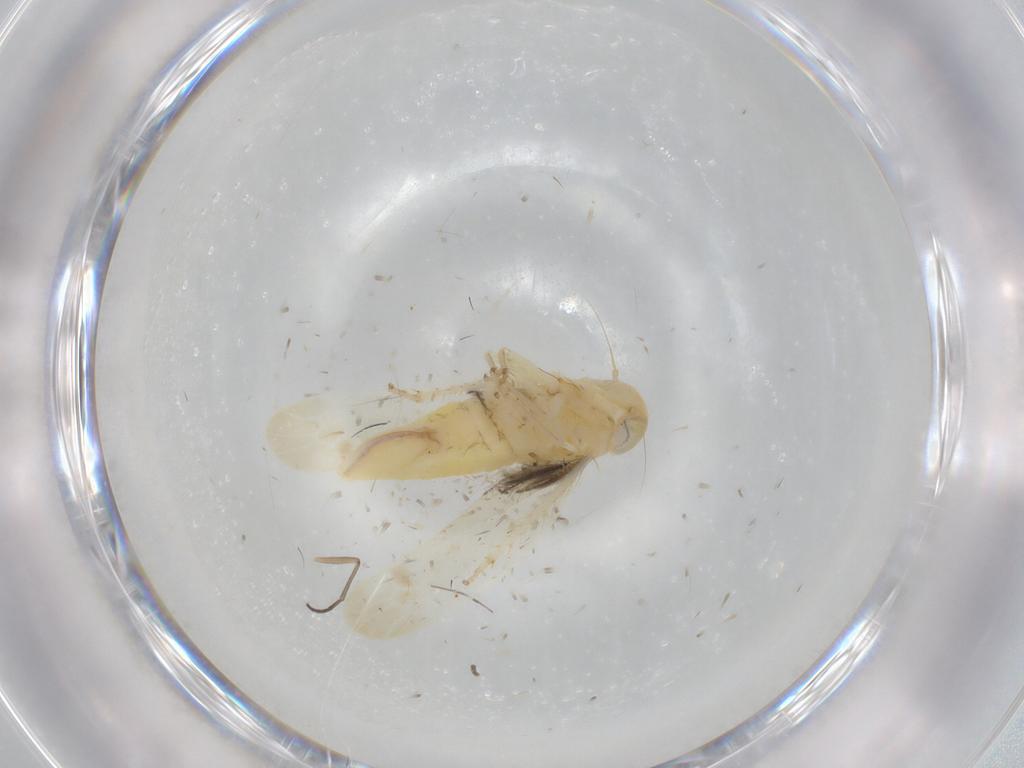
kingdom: Animalia
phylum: Arthropoda
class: Insecta
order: Hemiptera
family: Cicadellidae
